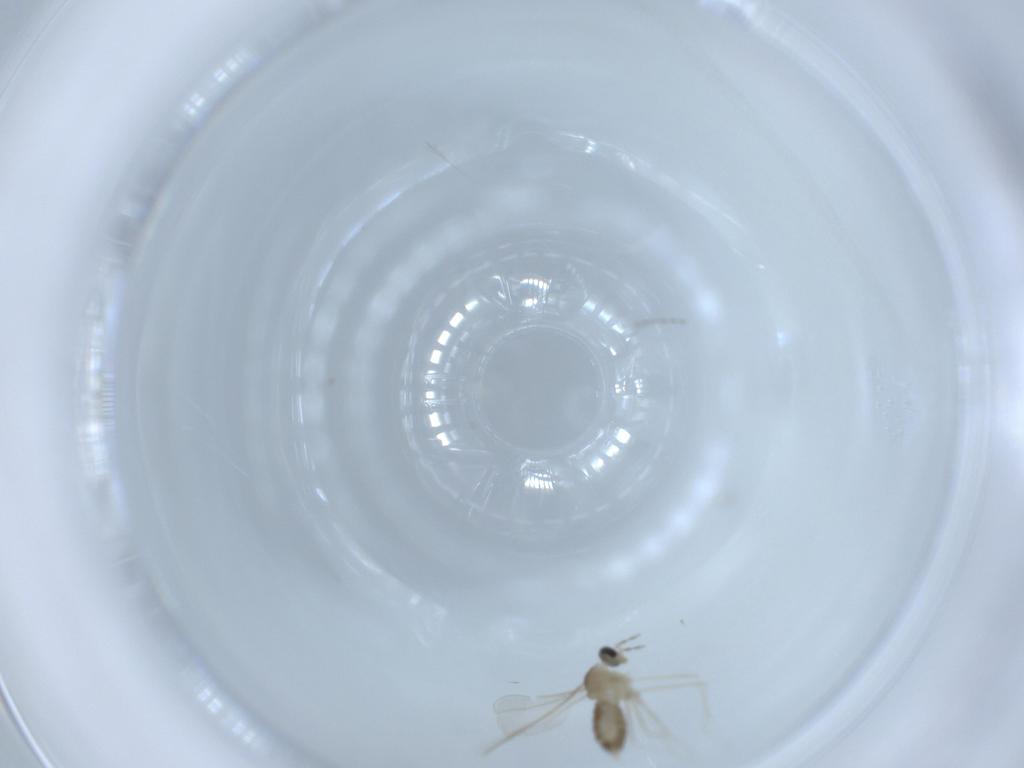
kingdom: Animalia
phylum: Arthropoda
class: Insecta
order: Diptera
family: Cecidomyiidae
